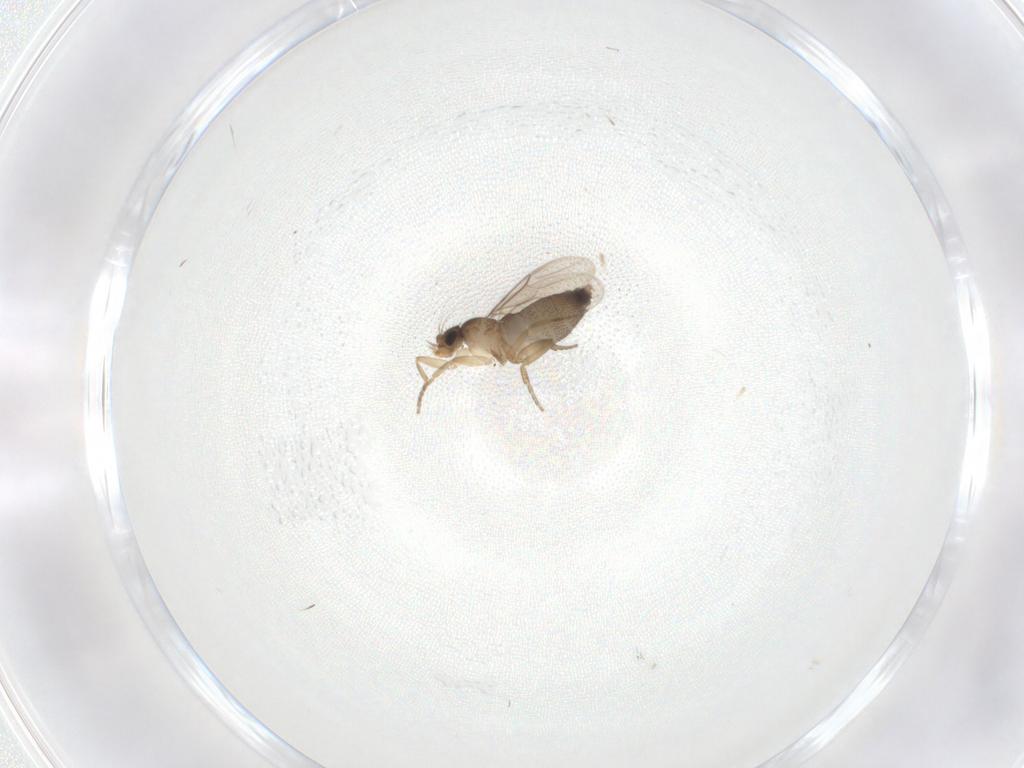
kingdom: Animalia
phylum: Arthropoda
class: Insecta
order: Diptera
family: Phoridae
